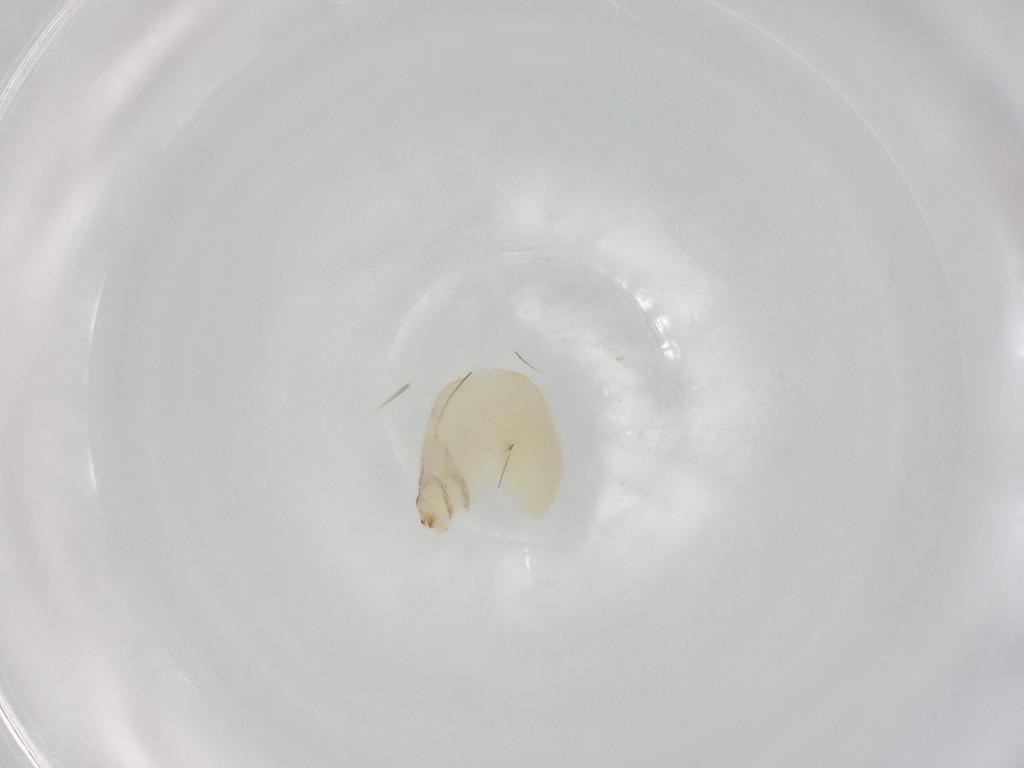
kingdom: Animalia
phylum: Arthropoda
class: Insecta
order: Hymenoptera
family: Dryinidae
